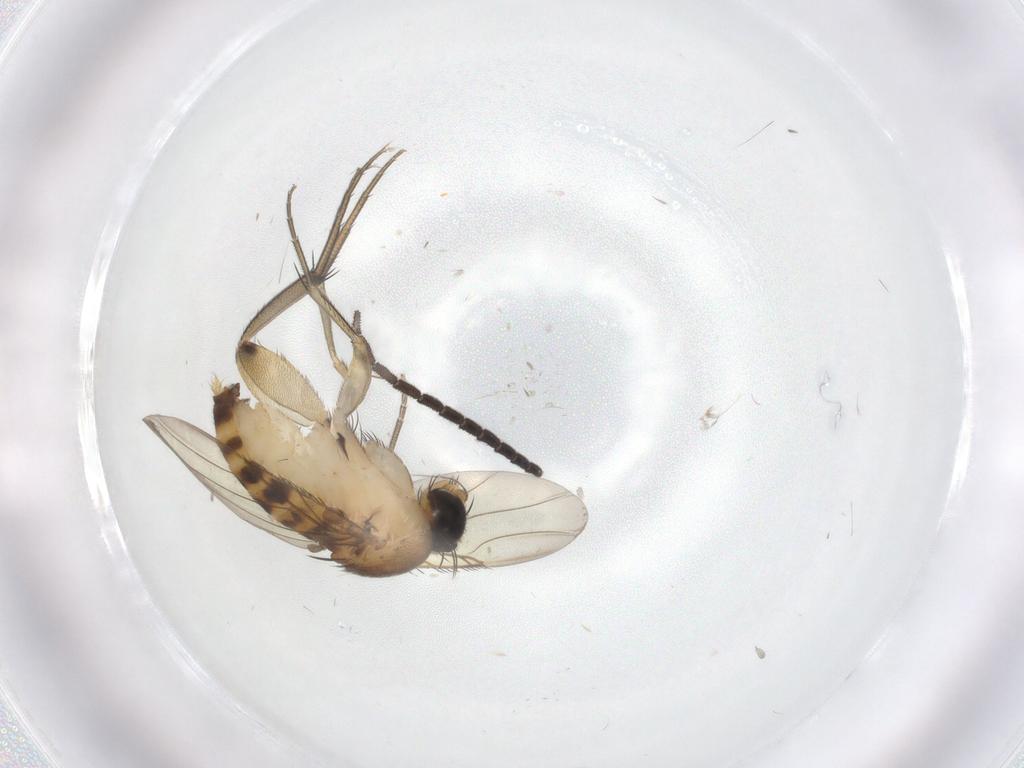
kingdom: Animalia
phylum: Arthropoda
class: Insecta
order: Diptera
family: Phoridae
